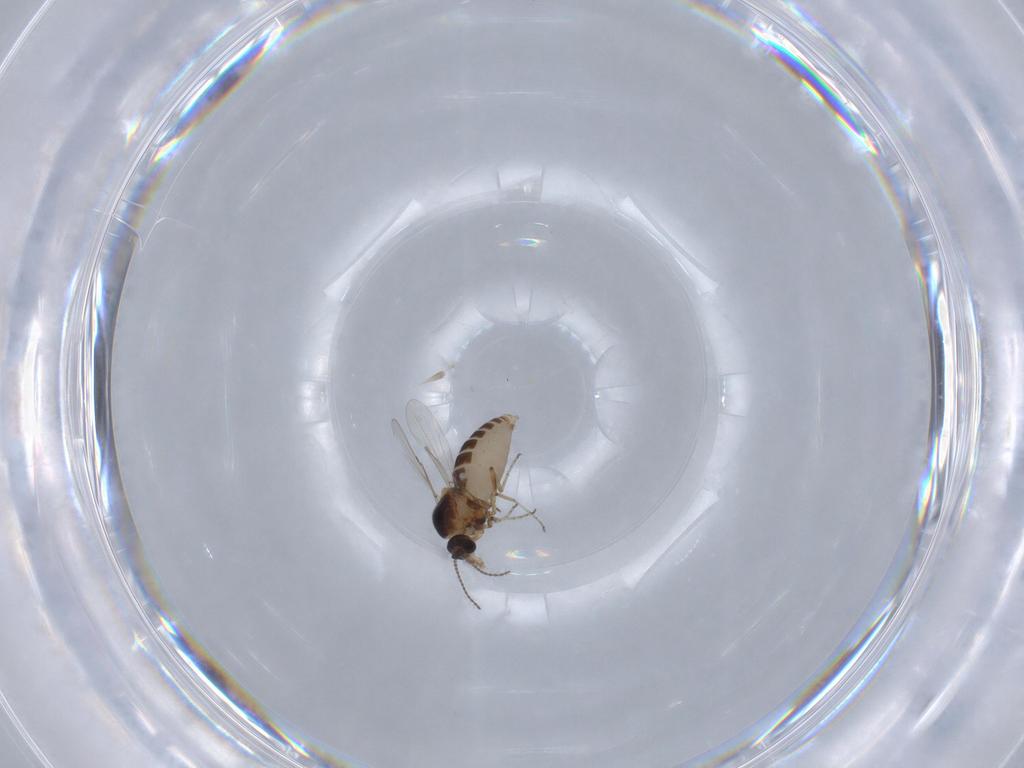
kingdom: Animalia
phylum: Arthropoda
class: Insecta
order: Diptera
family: Ceratopogonidae
